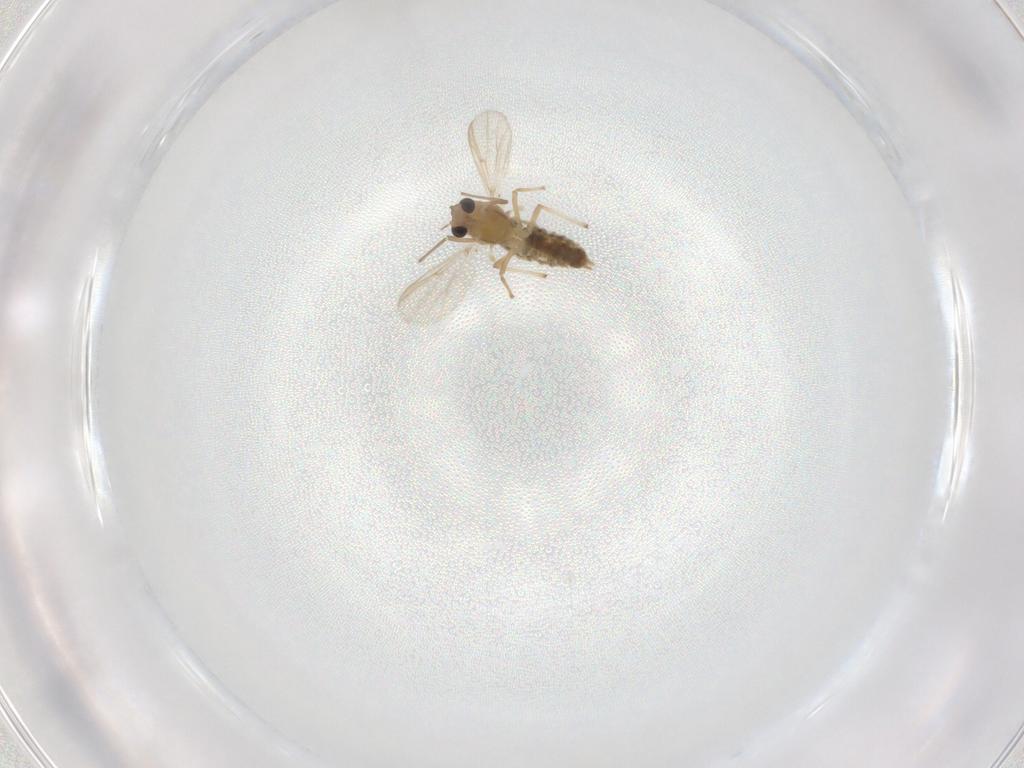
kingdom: Animalia
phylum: Arthropoda
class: Insecta
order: Diptera
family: Chironomidae
